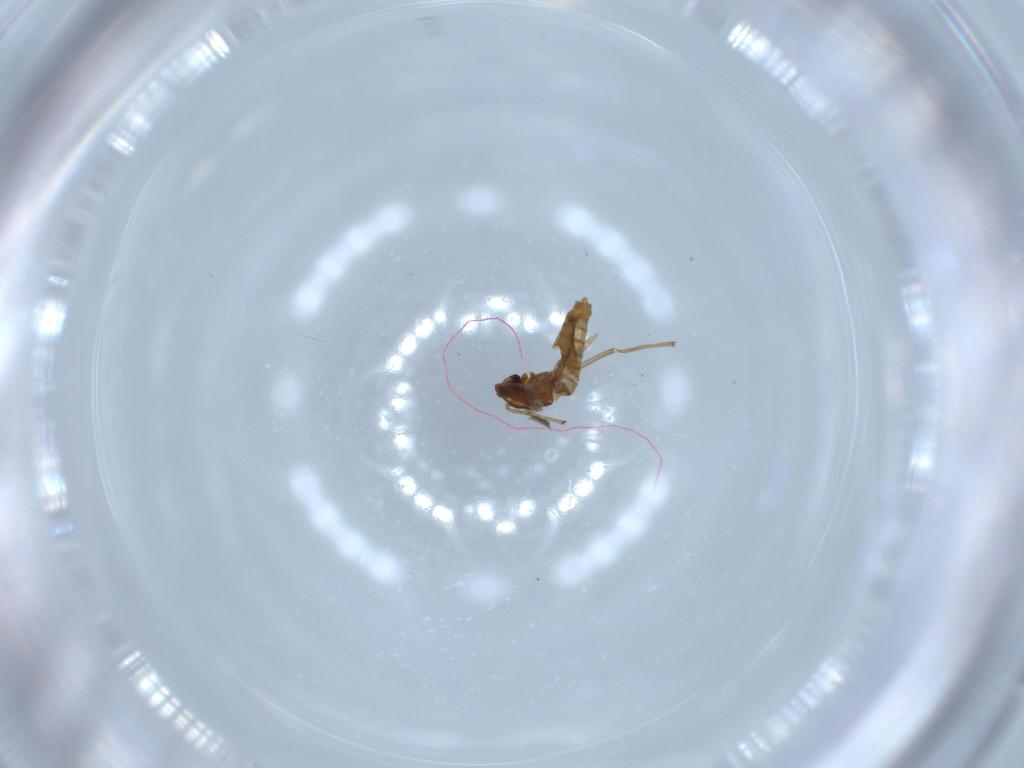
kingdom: Animalia
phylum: Arthropoda
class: Insecta
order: Diptera
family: Chironomidae
